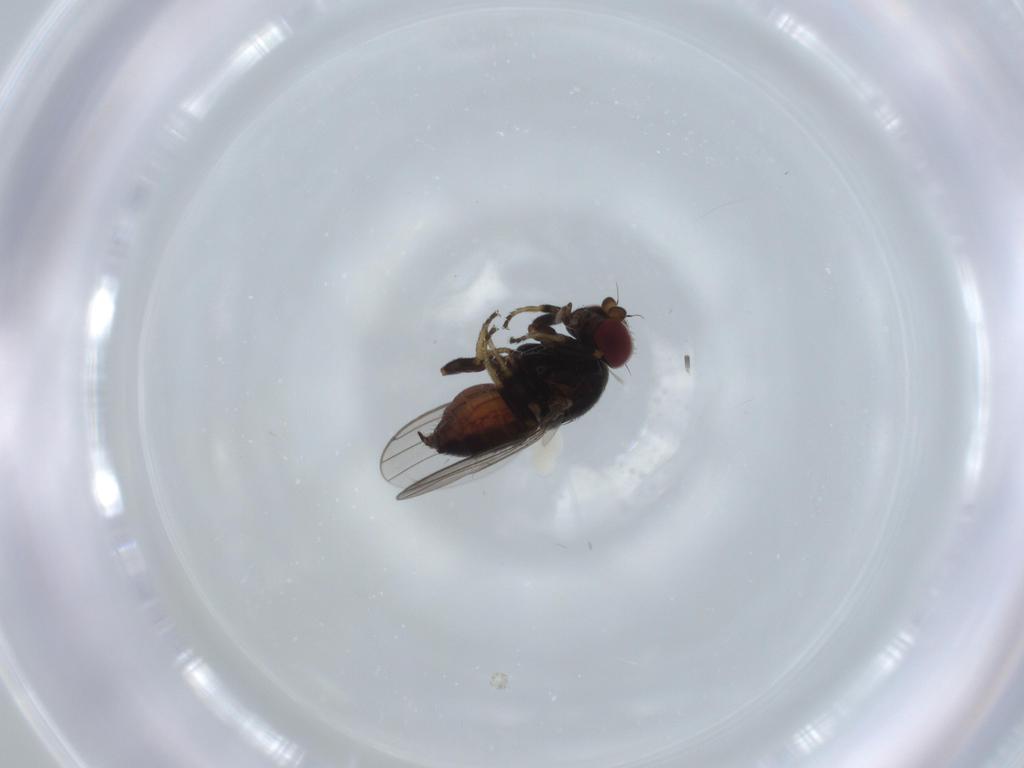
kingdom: Animalia
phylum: Arthropoda
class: Insecta
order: Diptera
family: Chloropidae
